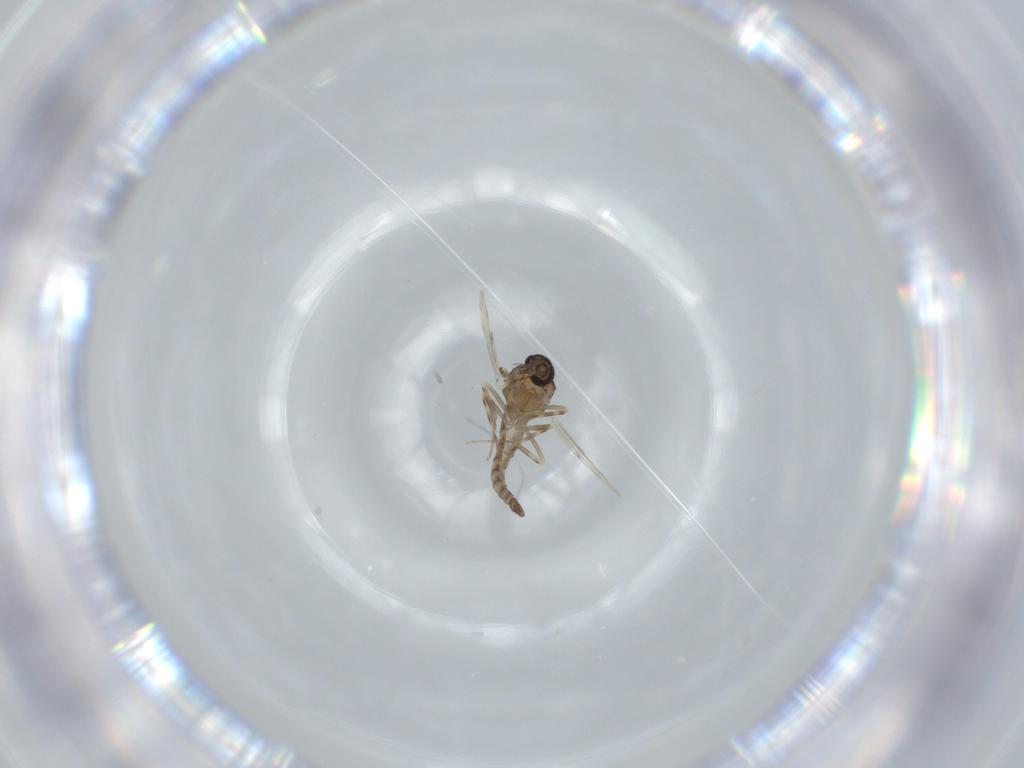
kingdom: Animalia
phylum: Arthropoda
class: Insecta
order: Diptera
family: Ceratopogonidae
